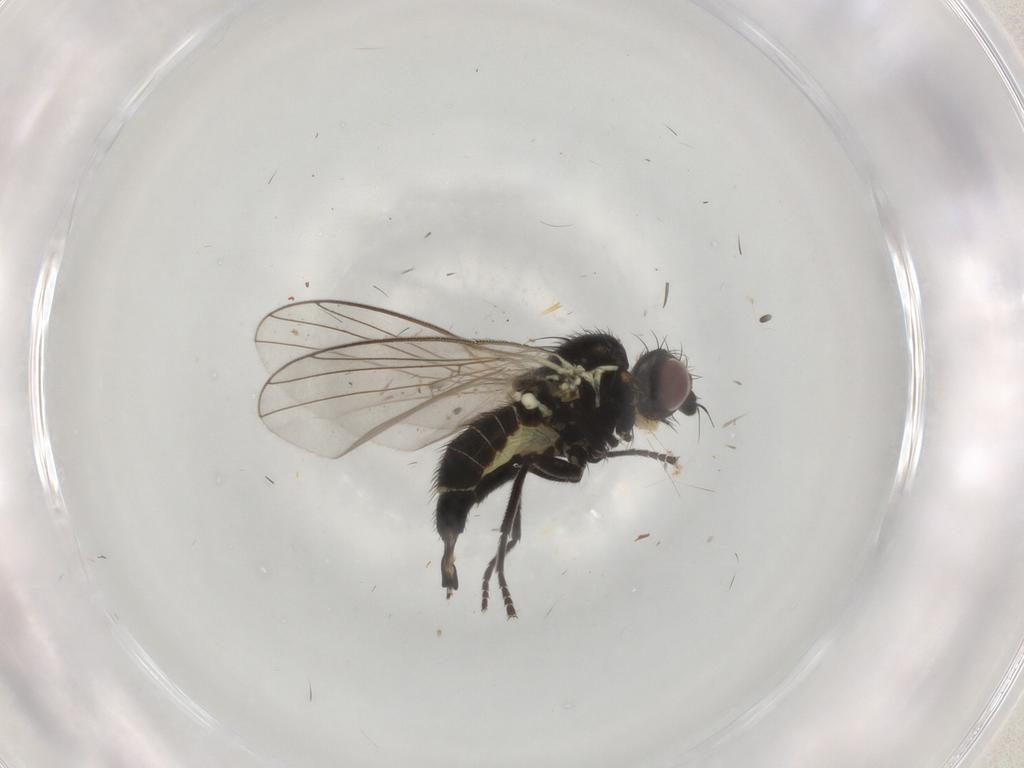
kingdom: Animalia
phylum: Arthropoda
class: Insecta
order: Diptera
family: Agromyzidae
